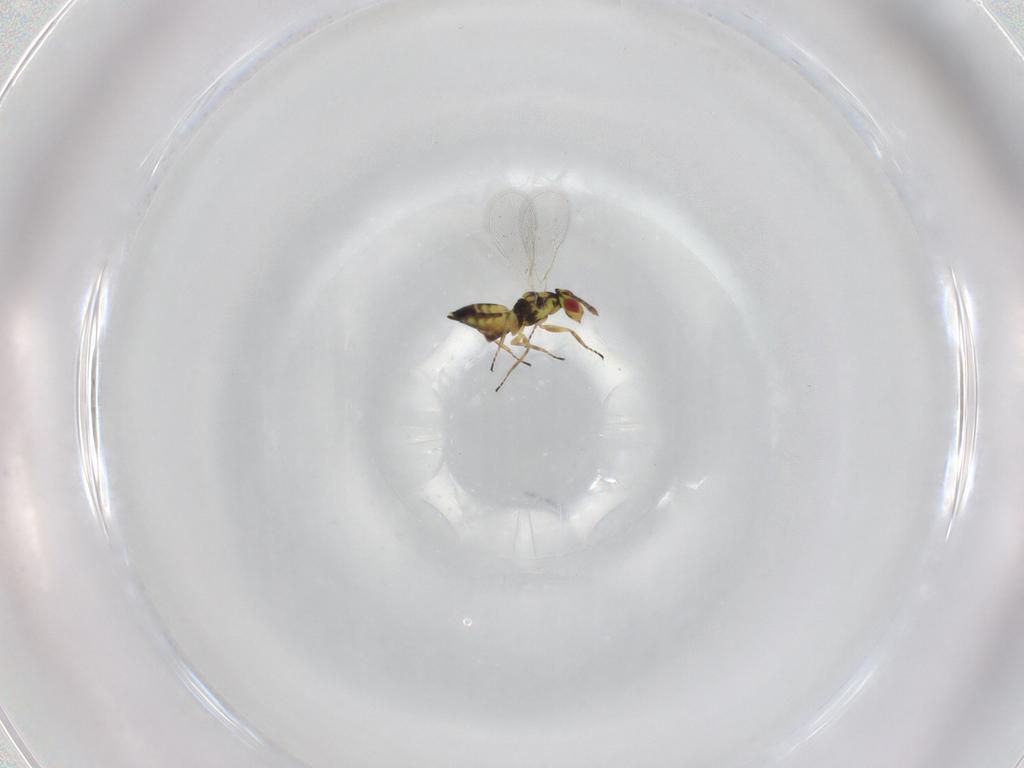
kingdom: Animalia
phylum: Arthropoda
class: Insecta
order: Hymenoptera
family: Eulophidae
